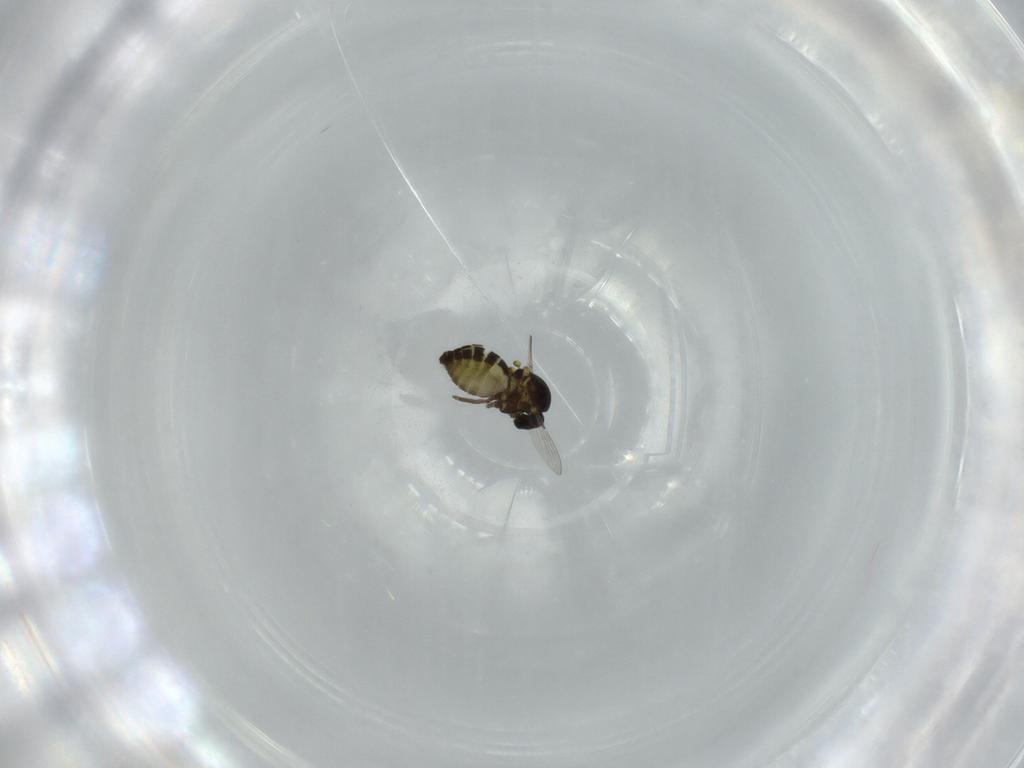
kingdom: Animalia
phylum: Arthropoda
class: Insecta
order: Diptera
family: Ceratopogonidae
